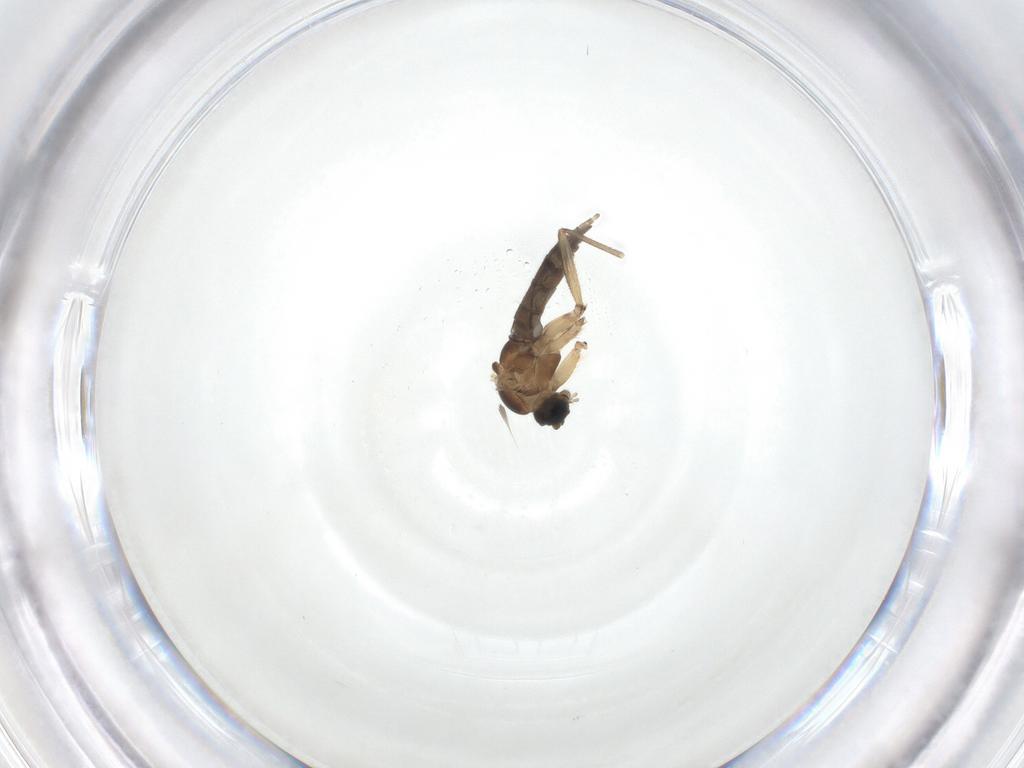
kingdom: Animalia
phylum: Arthropoda
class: Insecta
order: Diptera
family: Sciaridae
